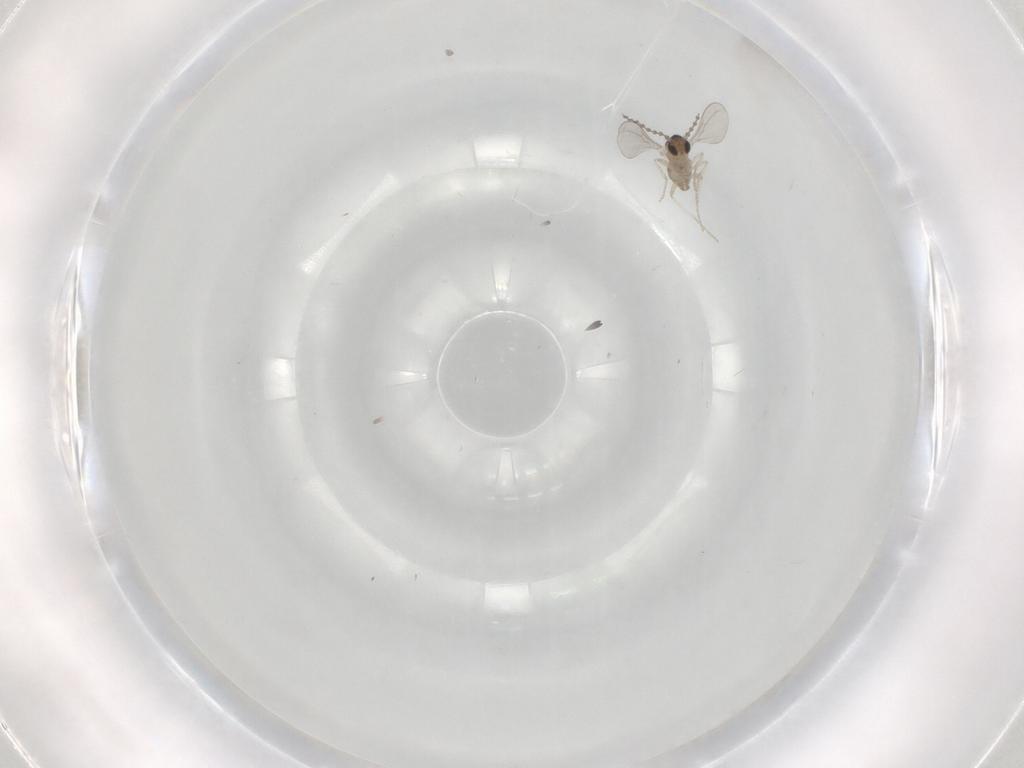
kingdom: Animalia
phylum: Arthropoda
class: Insecta
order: Diptera
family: Cecidomyiidae
